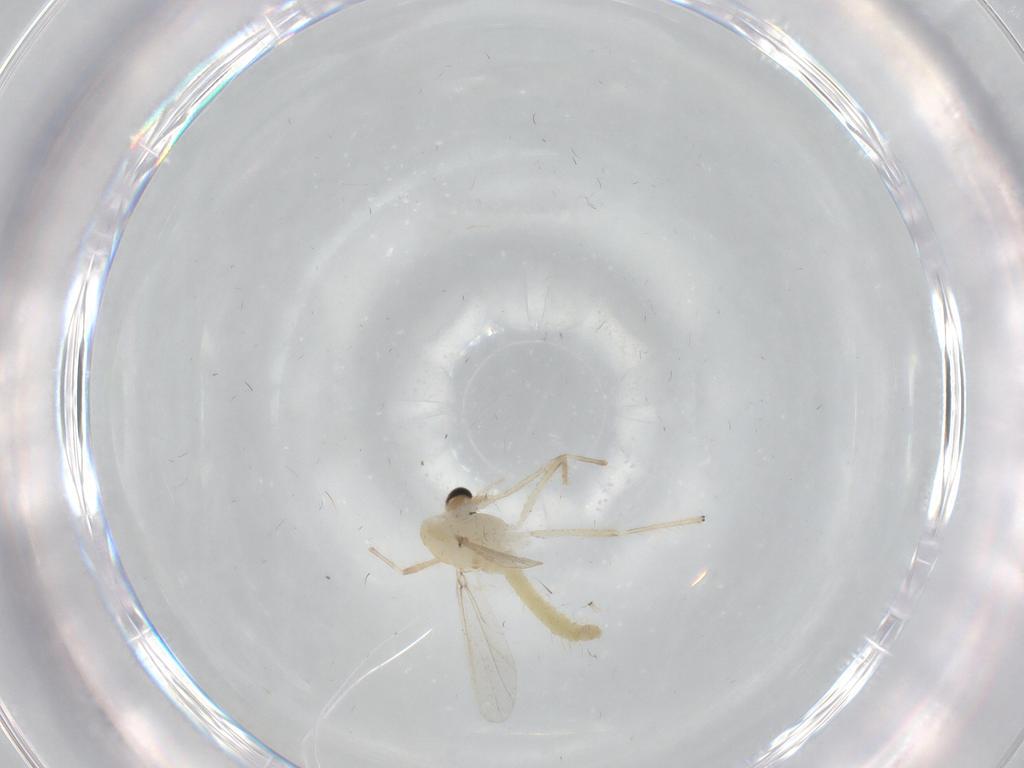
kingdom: Animalia
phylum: Arthropoda
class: Insecta
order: Diptera
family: Chironomidae
